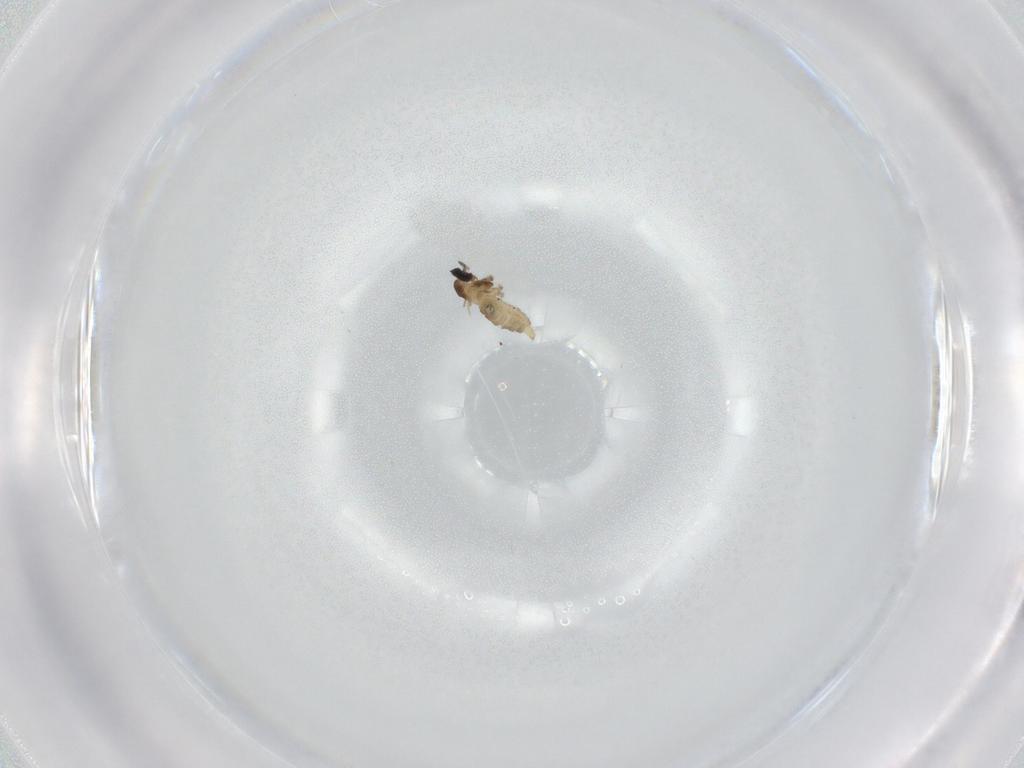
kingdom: Animalia
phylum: Arthropoda
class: Insecta
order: Diptera
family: Cecidomyiidae
